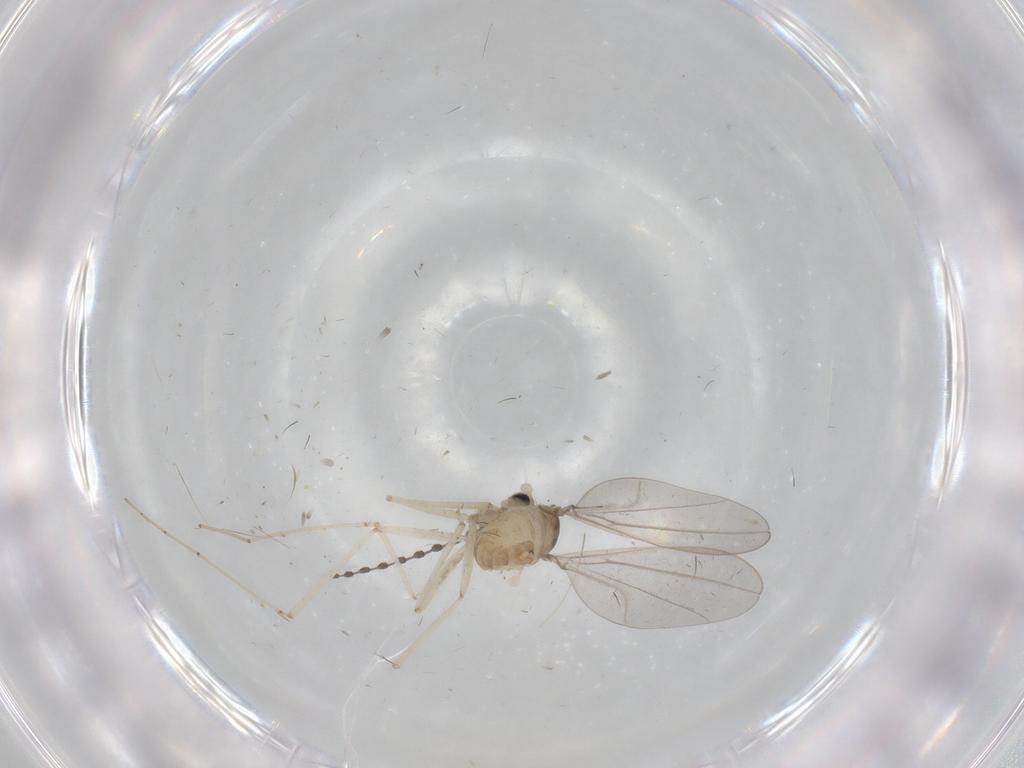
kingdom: Animalia
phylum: Arthropoda
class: Insecta
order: Diptera
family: Cecidomyiidae
